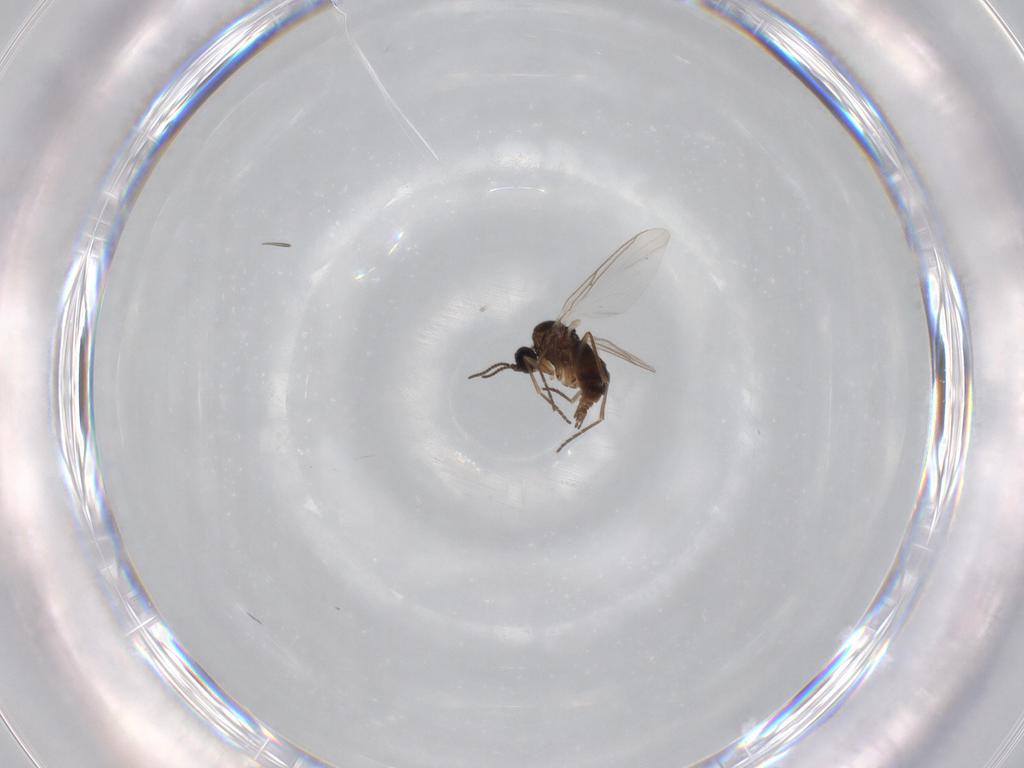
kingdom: Animalia
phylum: Arthropoda
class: Insecta
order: Diptera
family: Sciaridae
